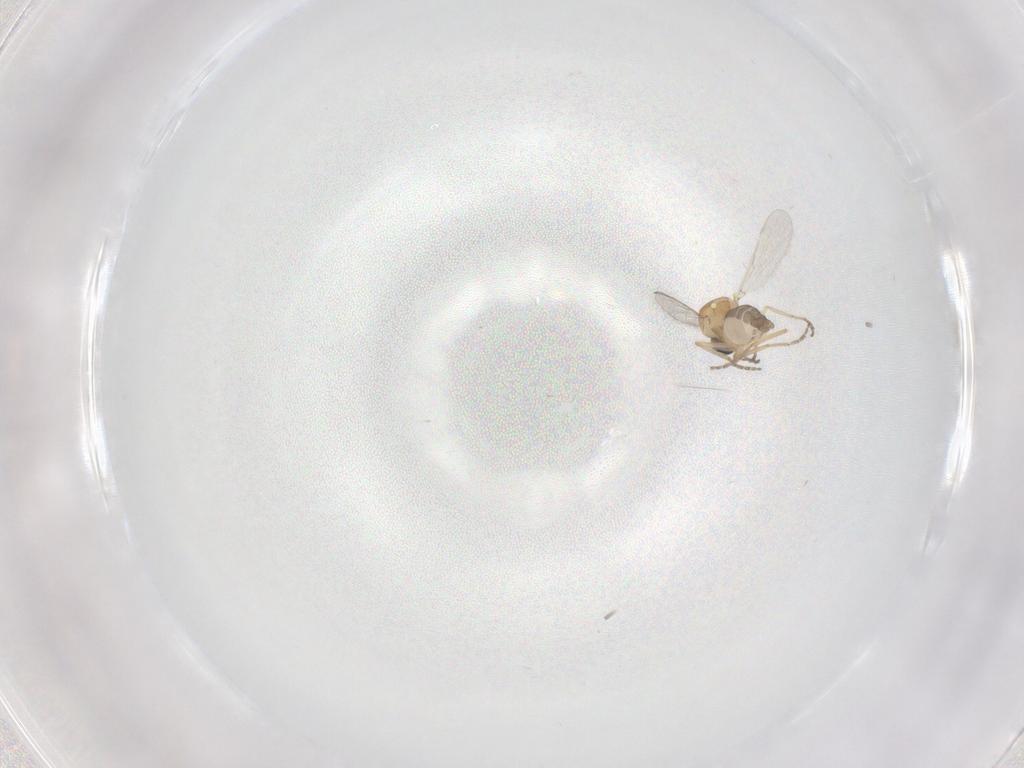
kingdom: Animalia
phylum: Arthropoda
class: Insecta
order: Diptera
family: Ceratopogonidae
